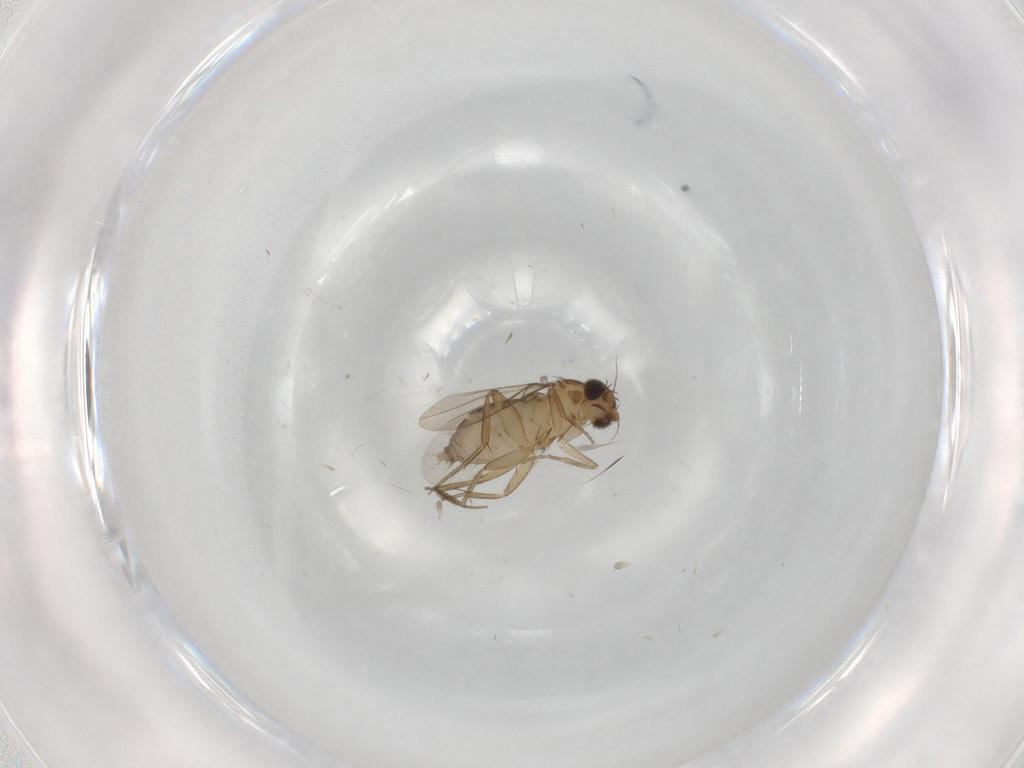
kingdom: Animalia
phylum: Arthropoda
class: Insecta
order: Diptera
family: Phoridae
